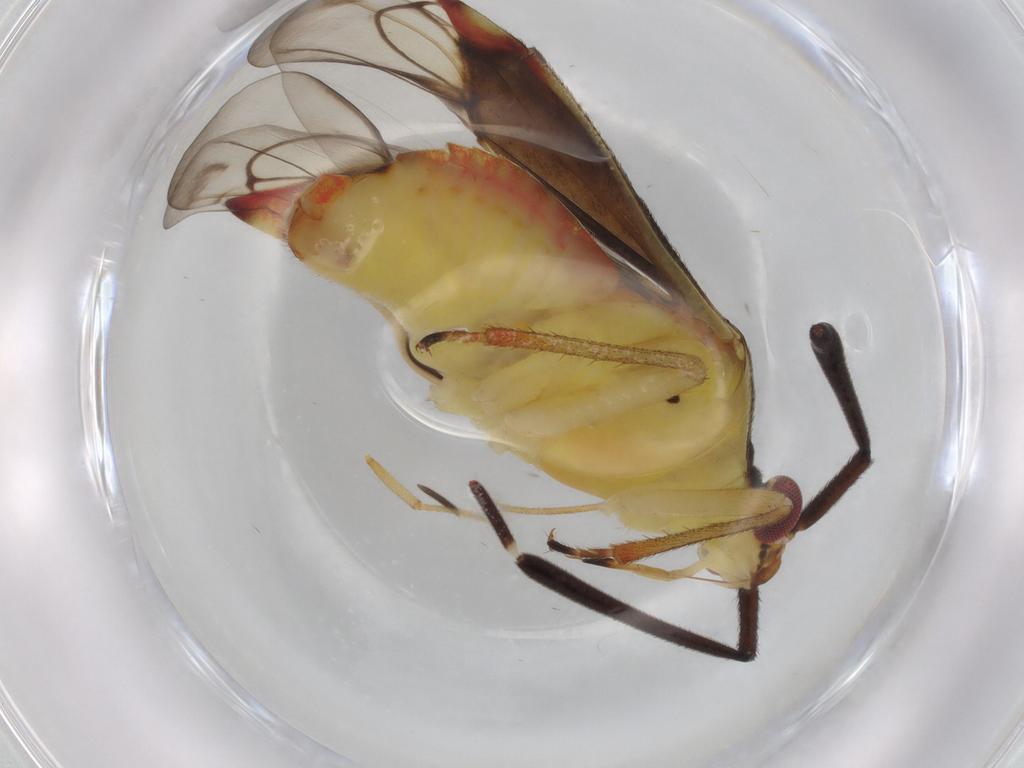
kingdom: Animalia
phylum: Arthropoda
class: Insecta
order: Hemiptera
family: Miridae
